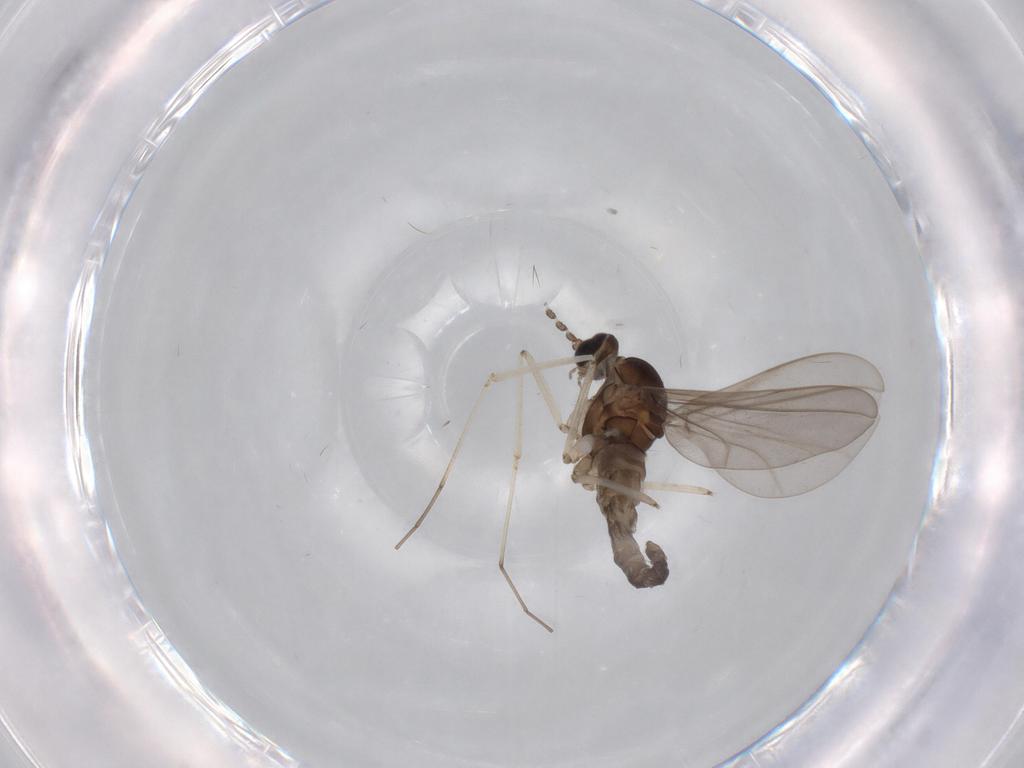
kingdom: Animalia
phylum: Arthropoda
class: Insecta
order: Diptera
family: Cecidomyiidae
